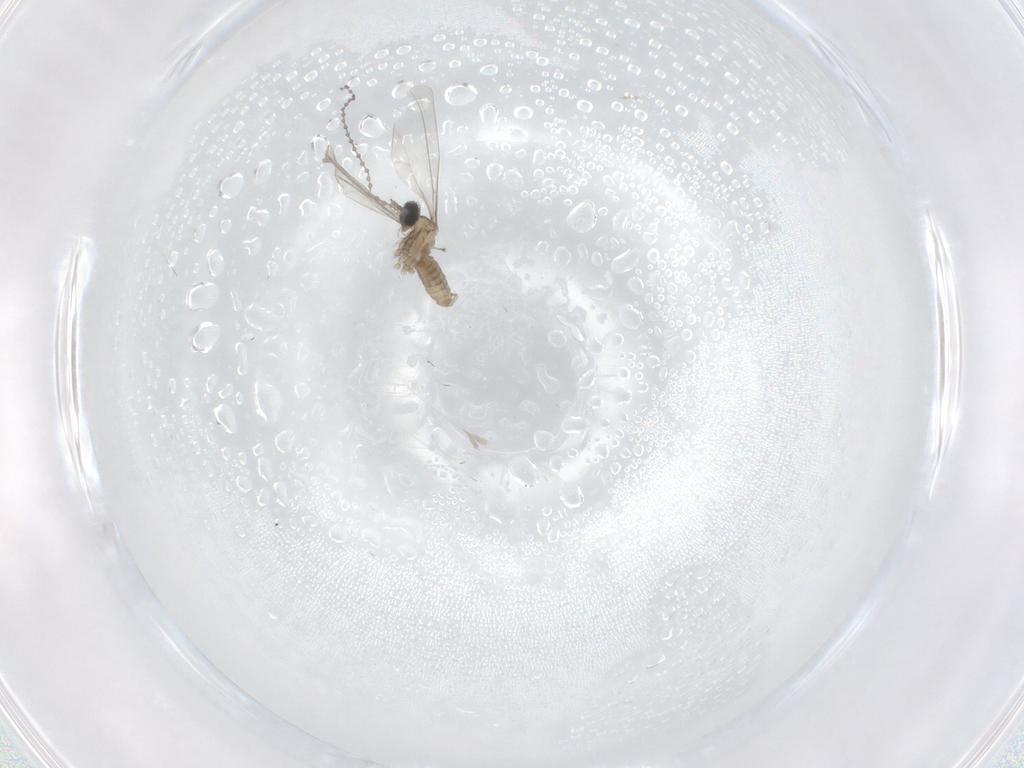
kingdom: Animalia
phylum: Arthropoda
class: Insecta
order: Diptera
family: Cecidomyiidae
